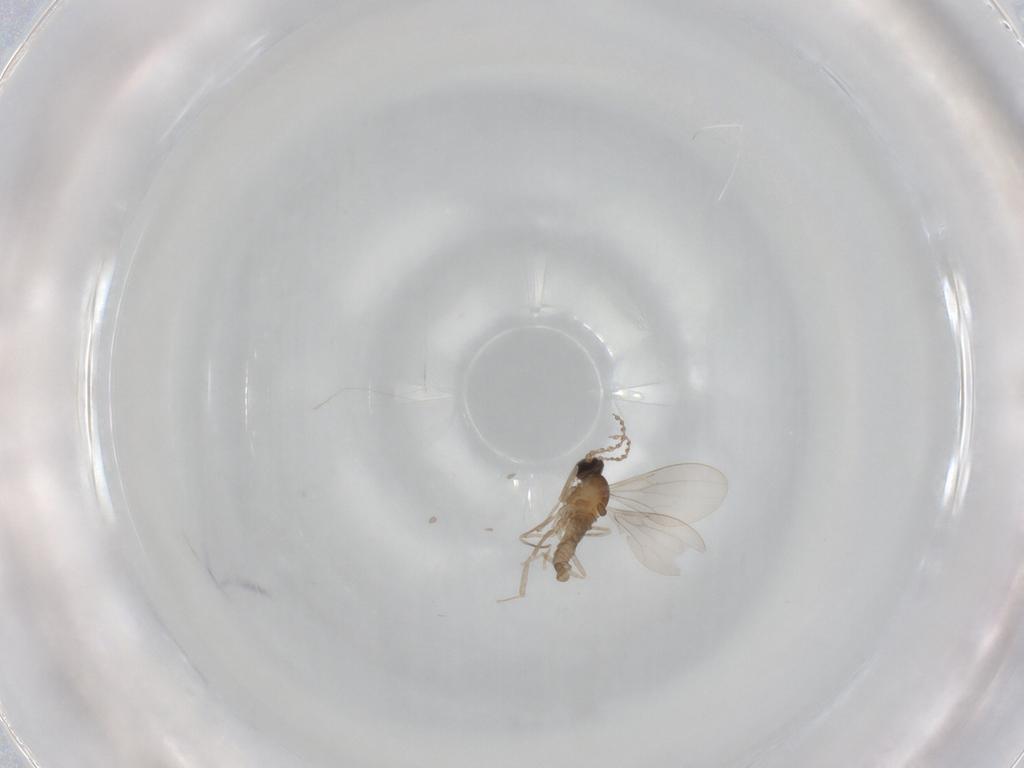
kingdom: Animalia
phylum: Arthropoda
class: Insecta
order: Diptera
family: Cecidomyiidae
